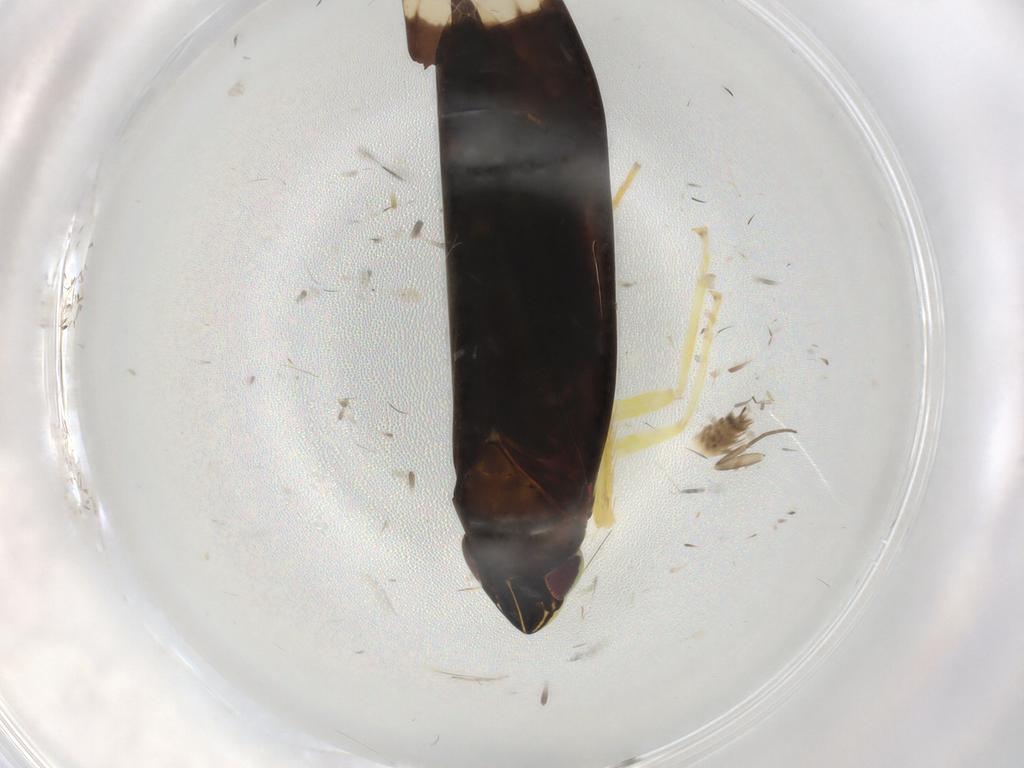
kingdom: Animalia
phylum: Arthropoda
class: Insecta
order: Hemiptera
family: Cicadellidae
